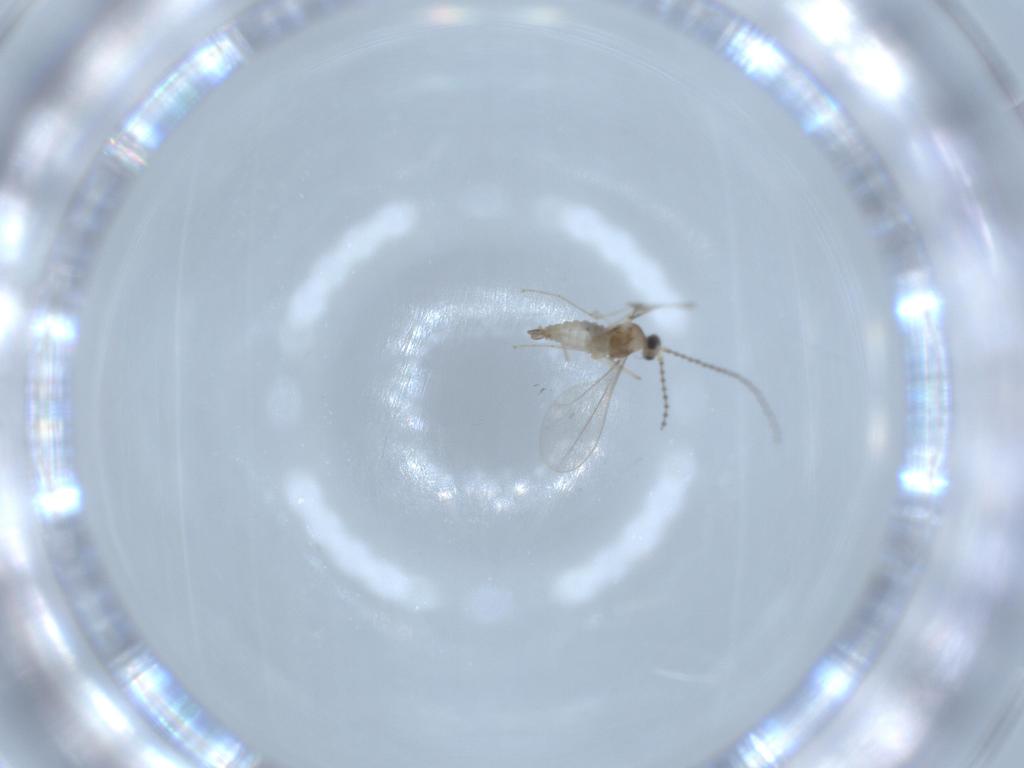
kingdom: Animalia
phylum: Arthropoda
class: Insecta
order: Diptera
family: Cecidomyiidae
